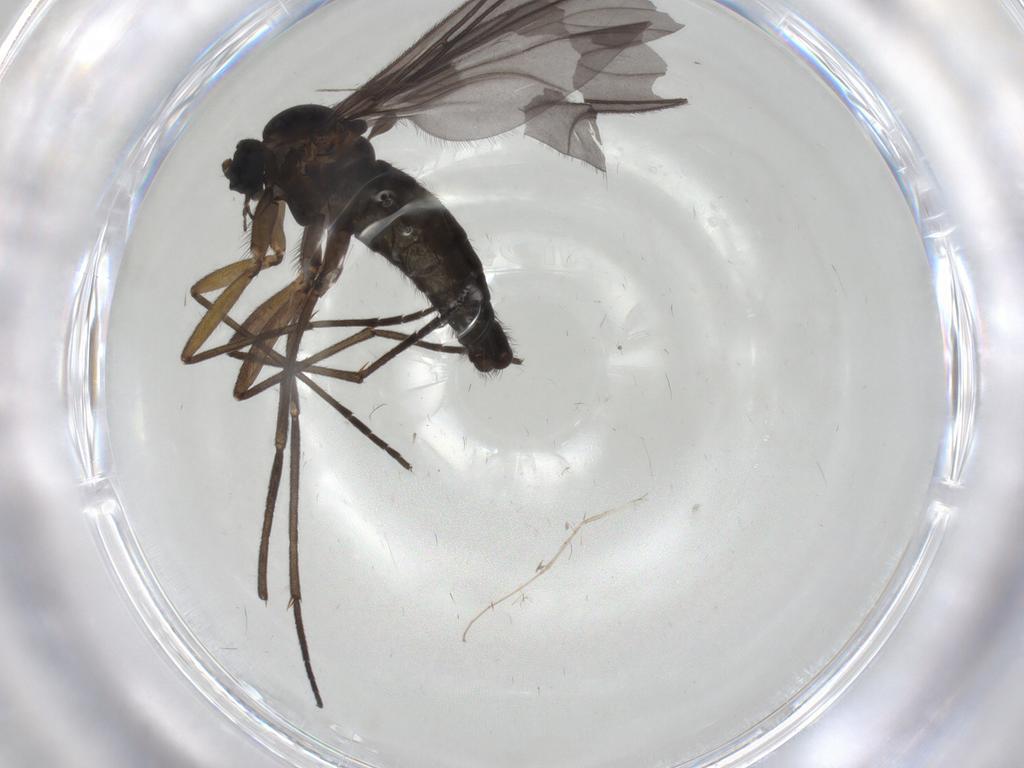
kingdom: Animalia
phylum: Arthropoda
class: Insecta
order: Diptera
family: Sciaridae
